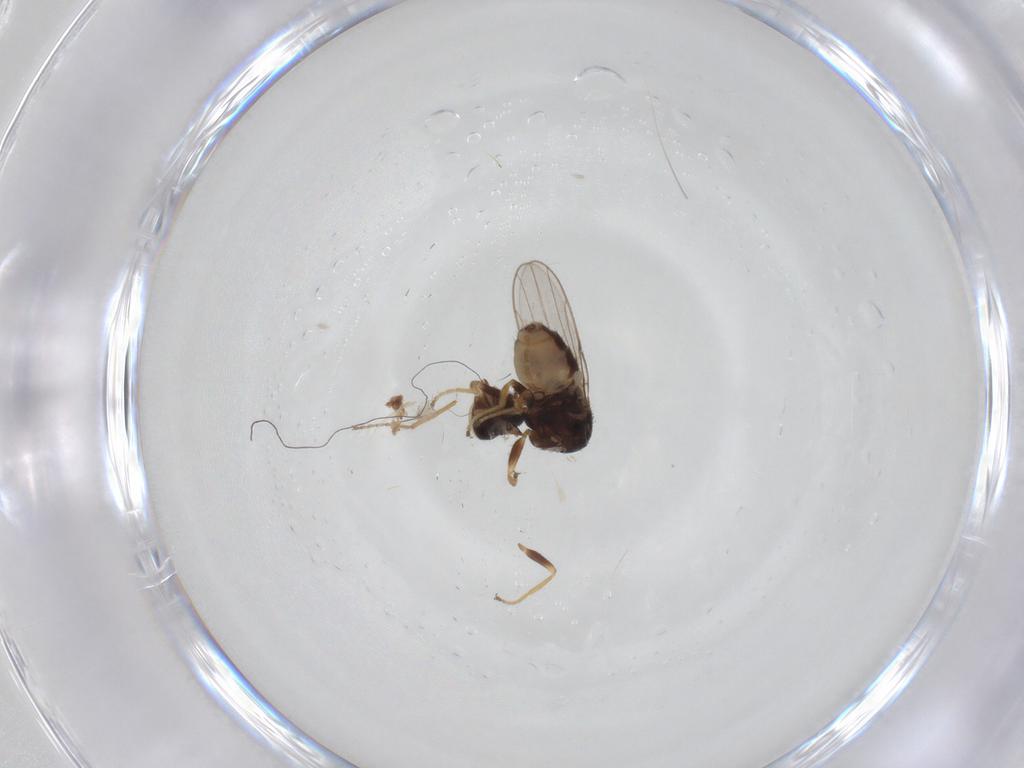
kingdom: Animalia
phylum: Arthropoda
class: Insecta
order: Diptera
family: Chloropidae
